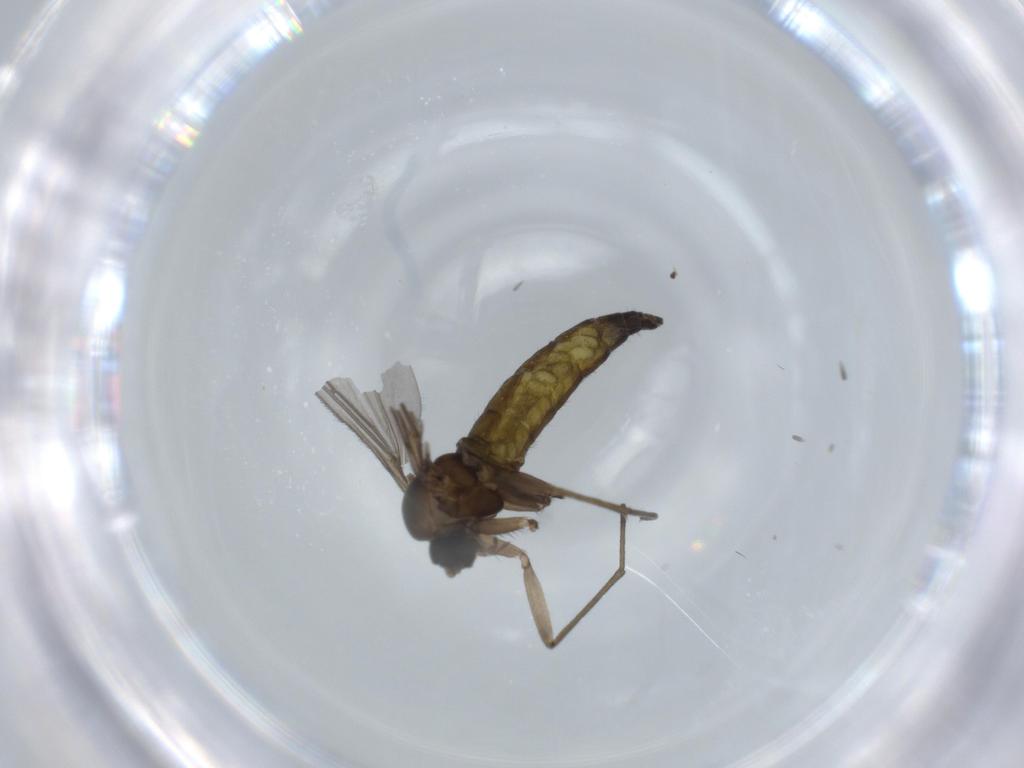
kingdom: Animalia
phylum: Arthropoda
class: Insecta
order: Diptera
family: Sciaridae
